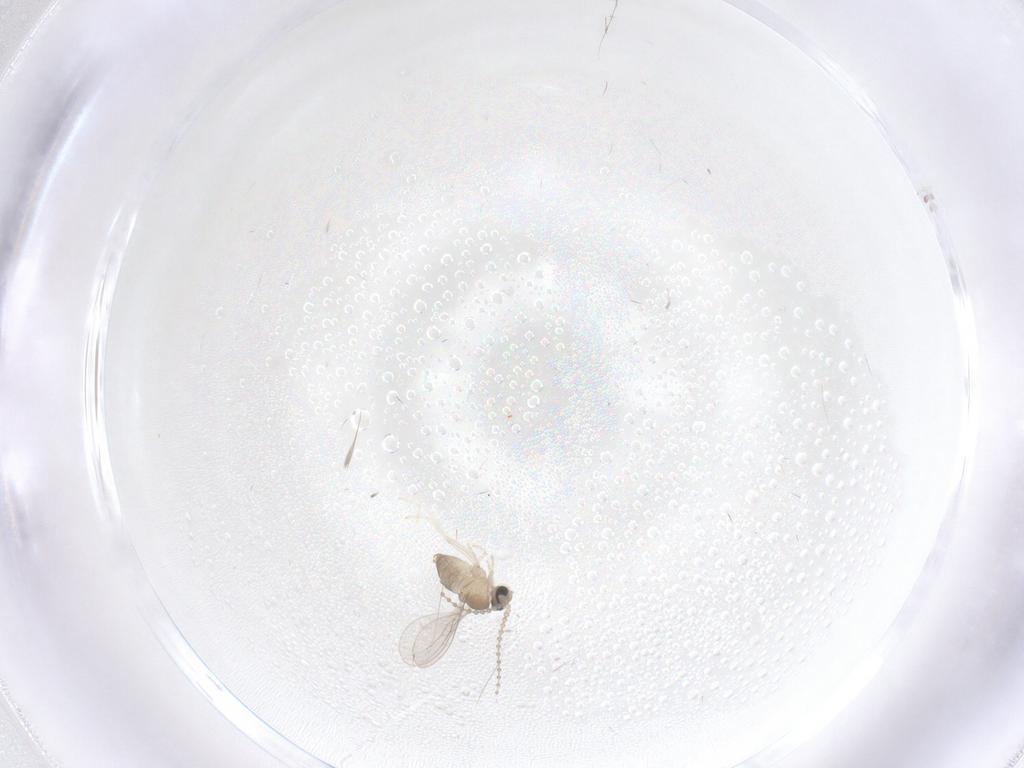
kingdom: Animalia
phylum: Arthropoda
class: Insecta
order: Diptera
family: Cecidomyiidae
